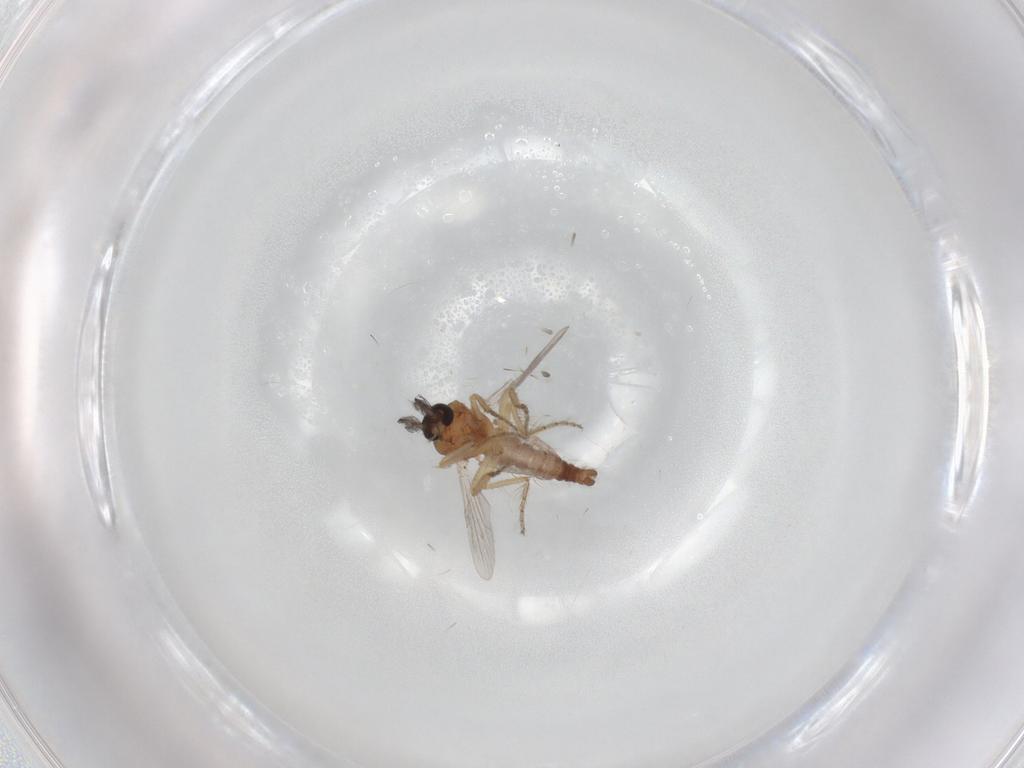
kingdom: Animalia
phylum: Arthropoda
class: Insecta
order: Diptera
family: Ceratopogonidae
